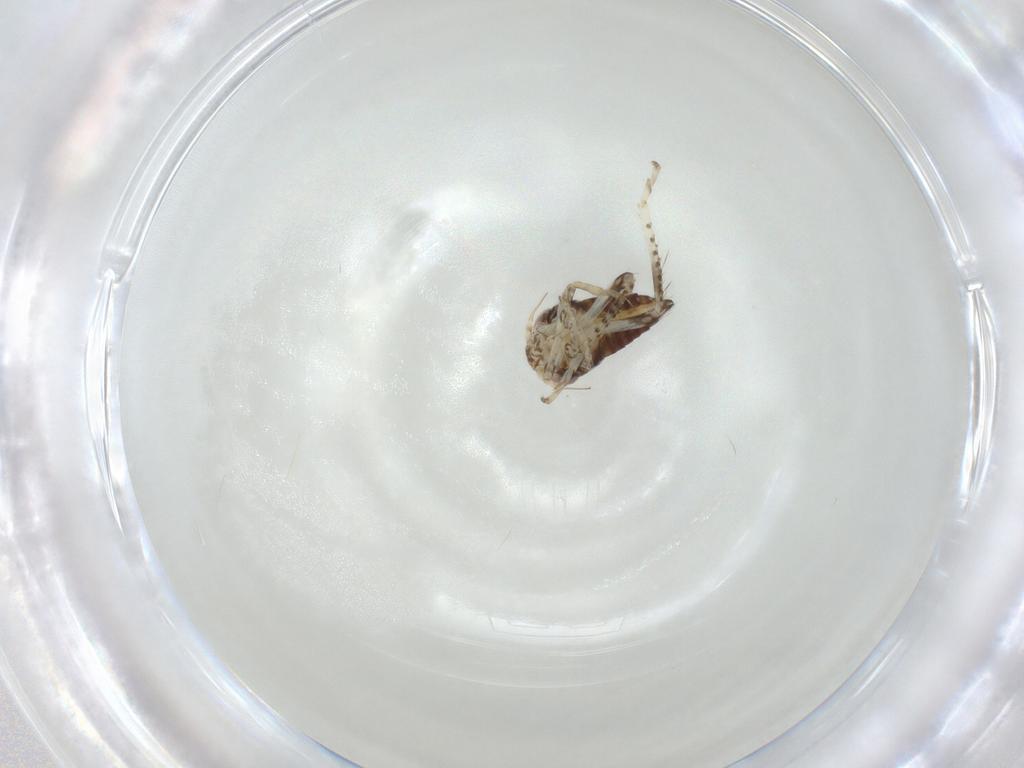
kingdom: Animalia
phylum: Arthropoda
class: Insecta
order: Hemiptera
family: Cicadellidae
